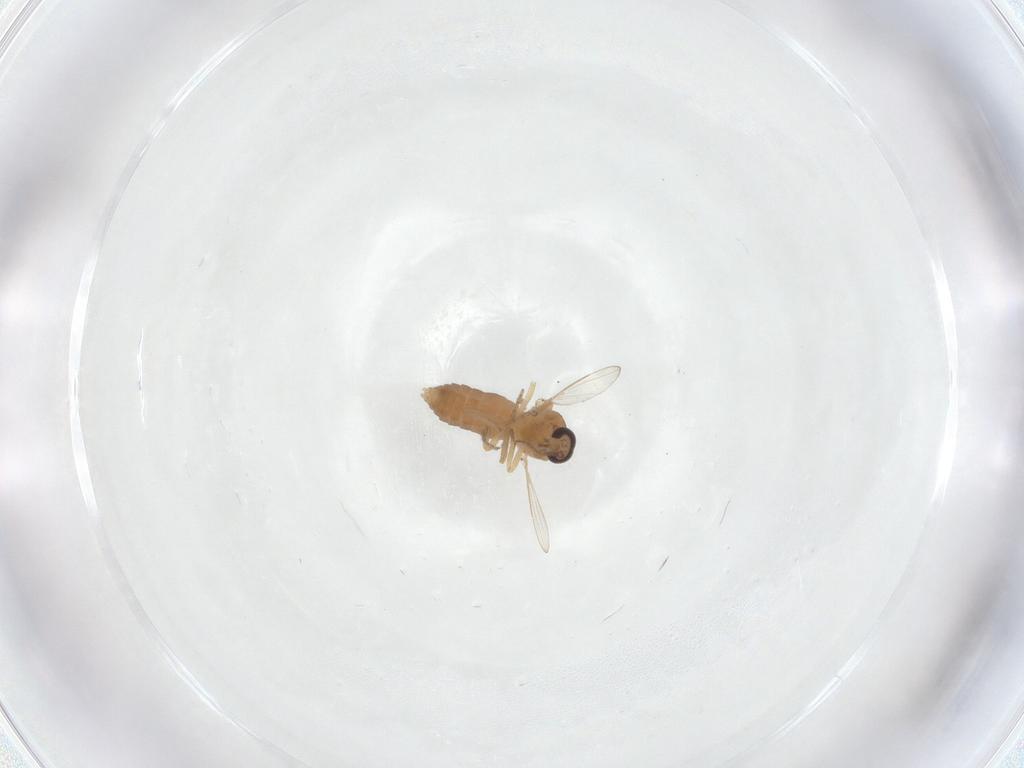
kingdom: Animalia
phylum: Arthropoda
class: Insecta
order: Diptera
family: Ceratopogonidae
